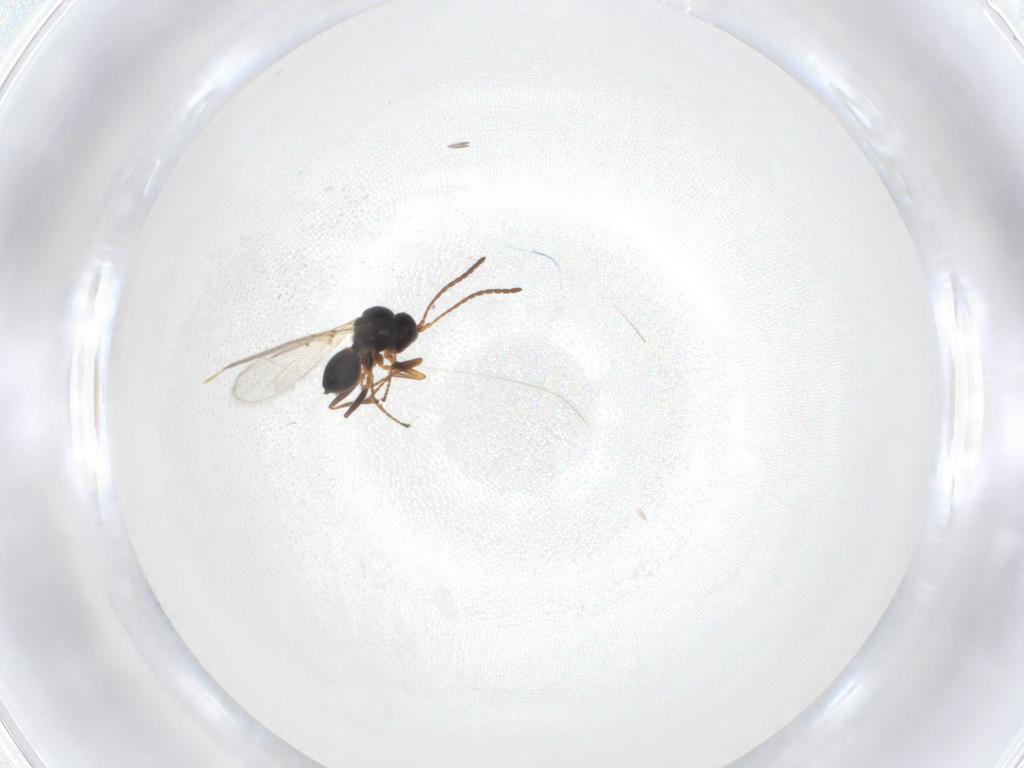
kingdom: Animalia
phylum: Arthropoda
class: Insecta
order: Hymenoptera
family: Figitidae
